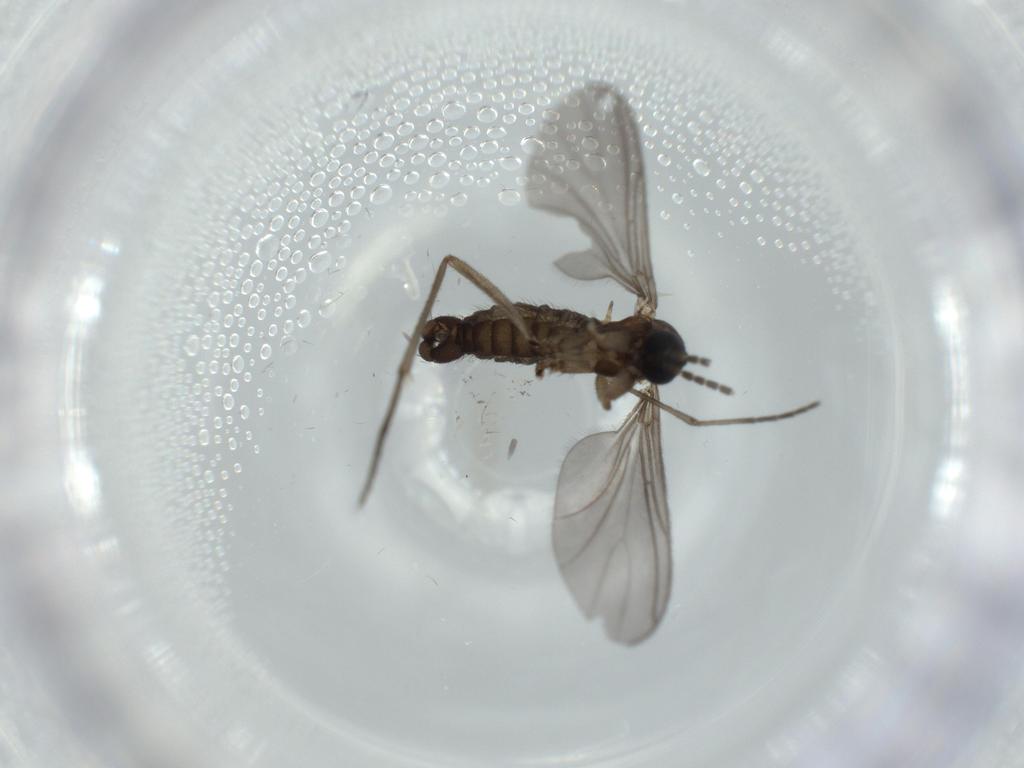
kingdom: Animalia
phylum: Arthropoda
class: Insecta
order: Diptera
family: Sciaridae
